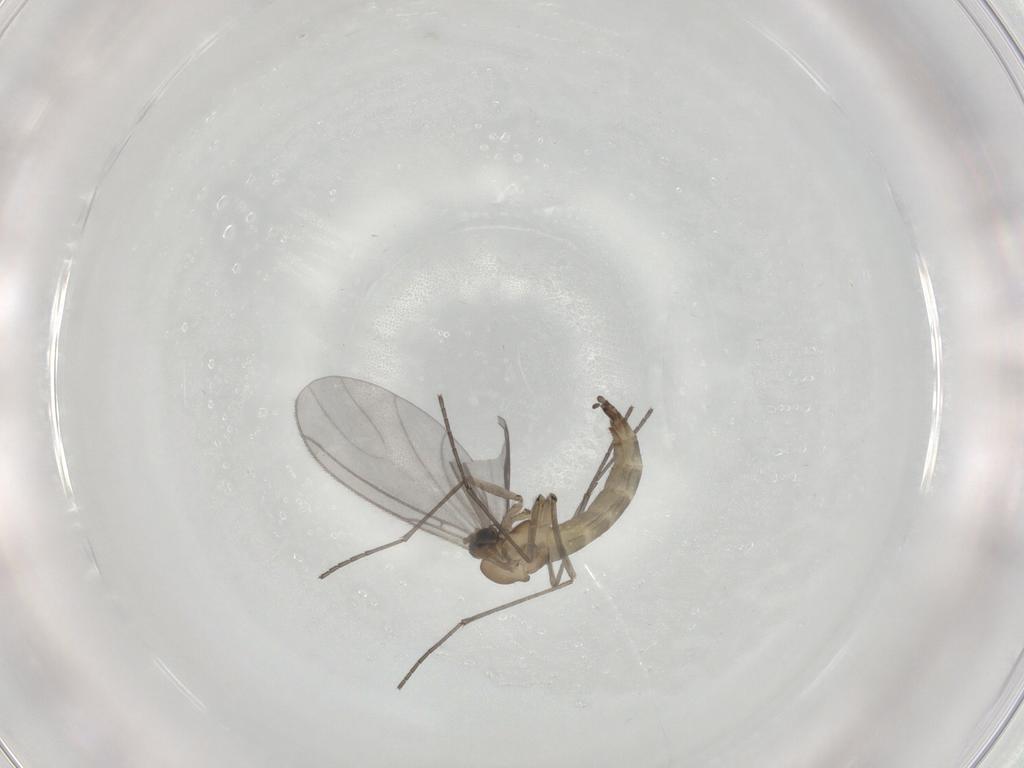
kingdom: Animalia
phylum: Arthropoda
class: Insecta
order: Diptera
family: Sciaridae
